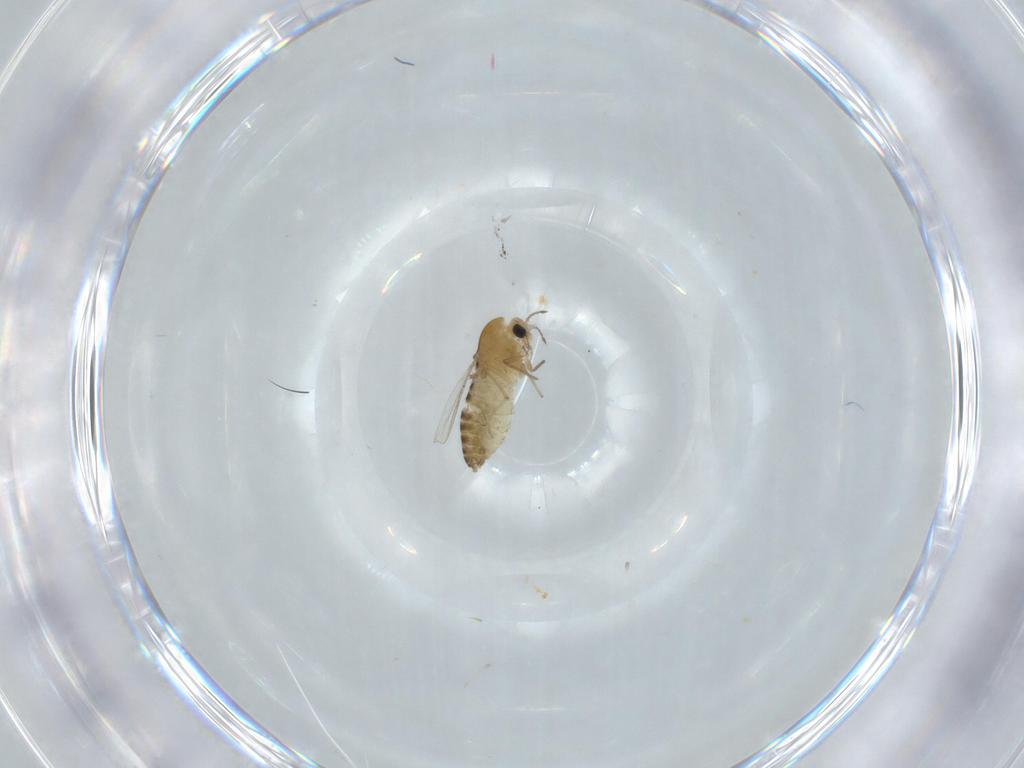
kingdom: Animalia
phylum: Arthropoda
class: Insecta
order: Diptera
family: Chironomidae
